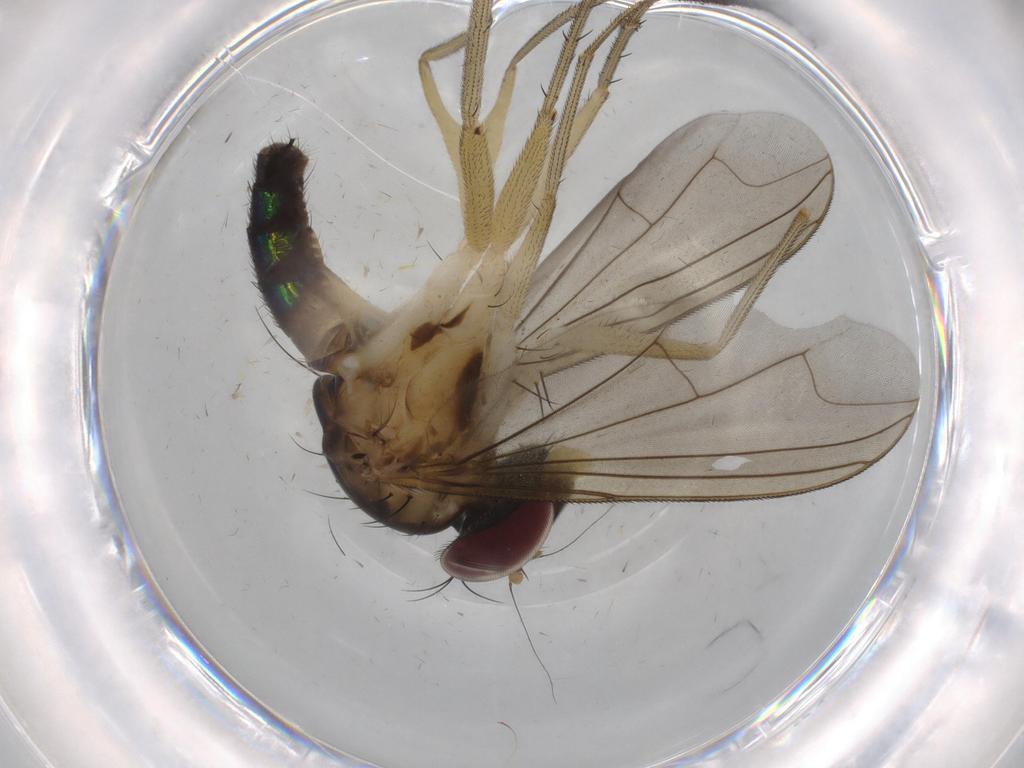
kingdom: Animalia
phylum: Arthropoda
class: Insecta
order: Diptera
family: Dolichopodidae
